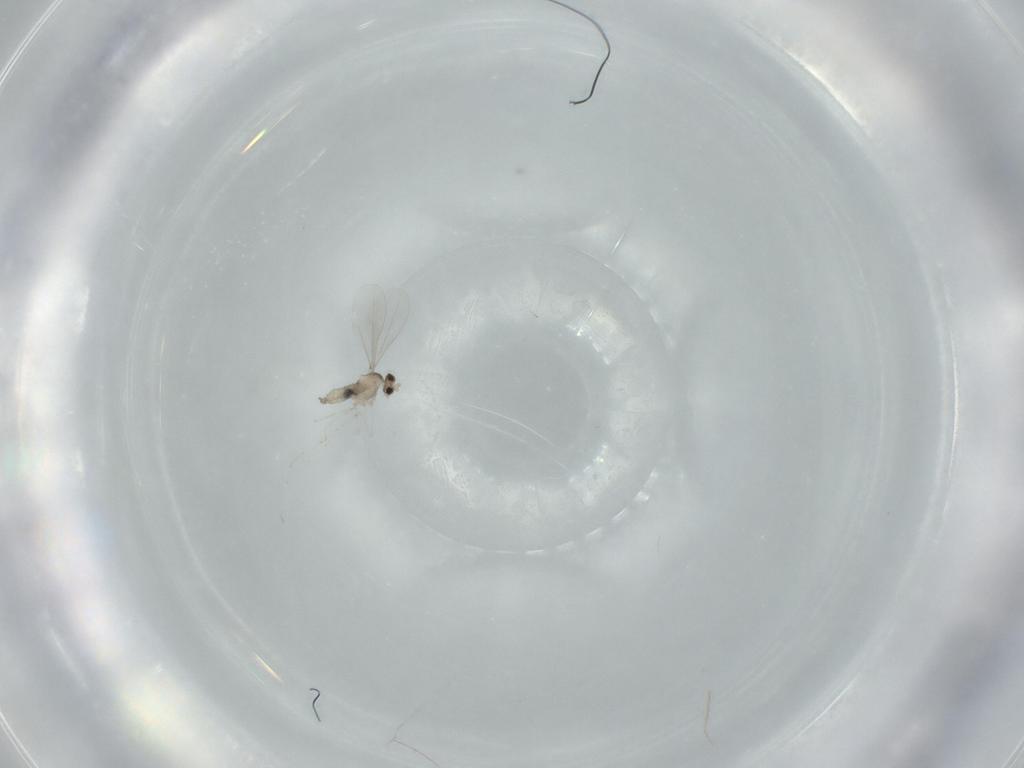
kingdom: Animalia
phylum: Arthropoda
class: Insecta
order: Diptera
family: Cecidomyiidae
